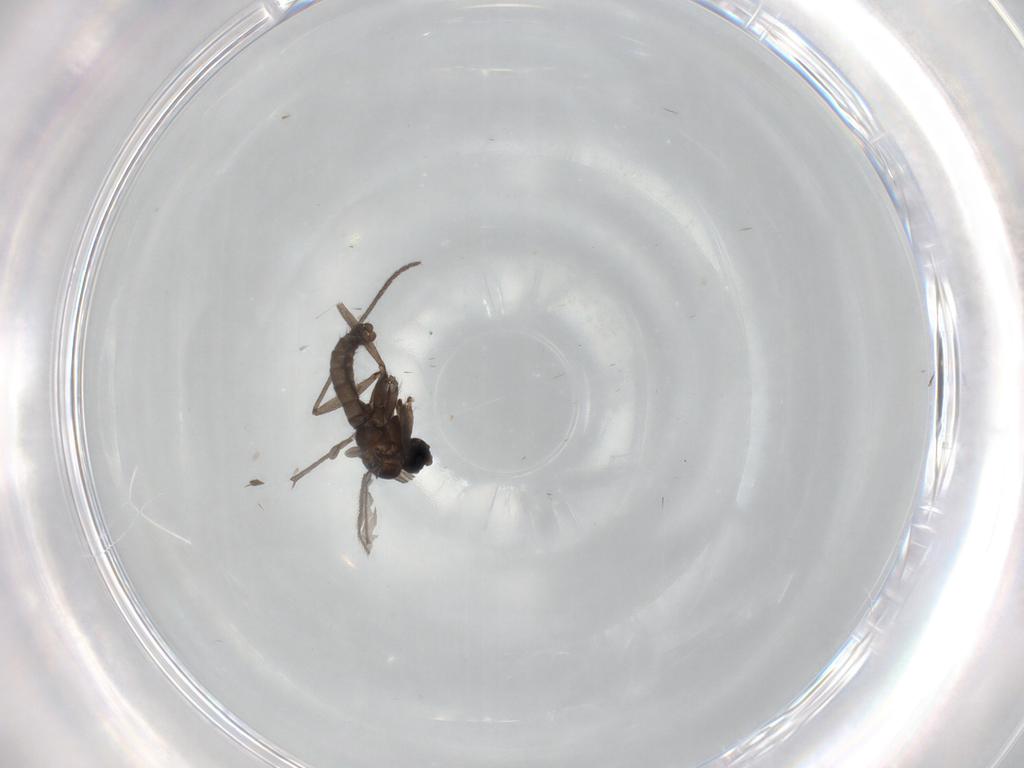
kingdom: Animalia
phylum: Arthropoda
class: Insecta
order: Diptera
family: Sciaridae
